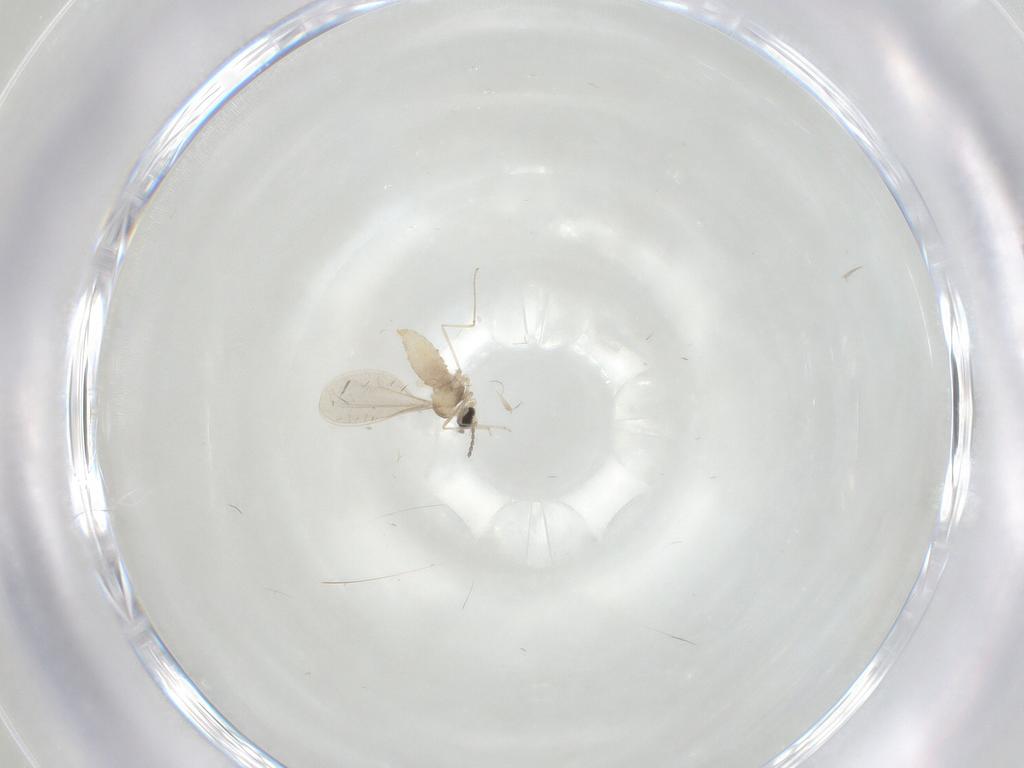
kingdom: Animalia
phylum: Arthropoda
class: Insecta
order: Diptera
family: Cecidomyiidae
